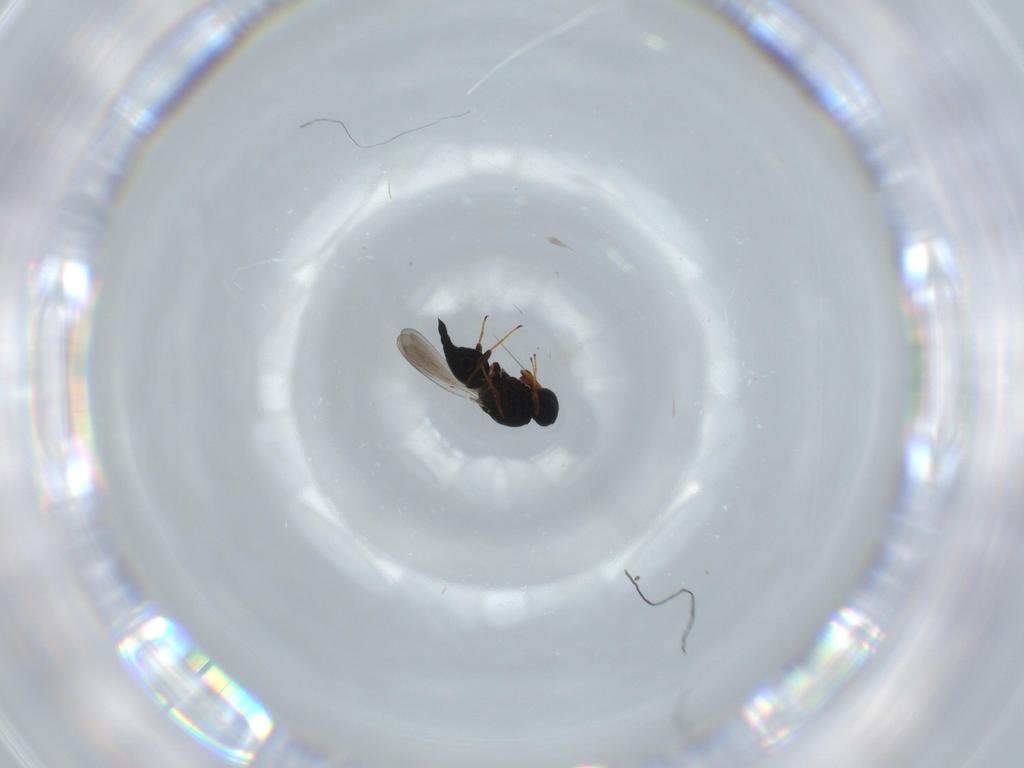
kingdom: Animalia
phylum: Arthropoda
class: Insecta
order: Hymenoptera
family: Platygastridae
